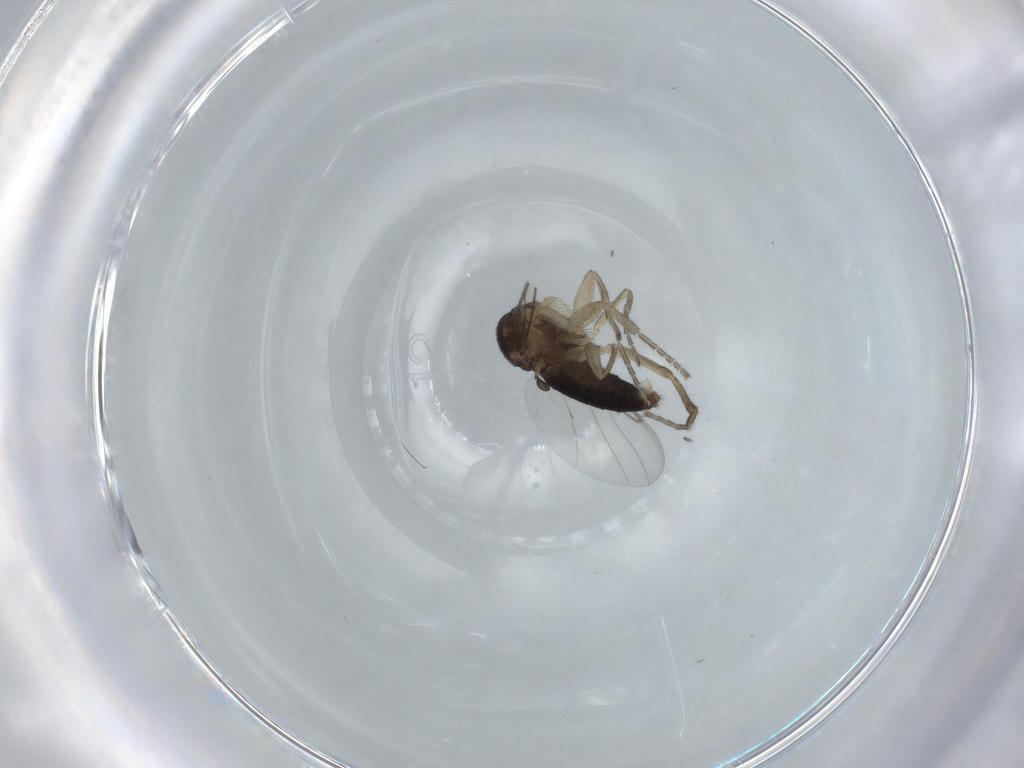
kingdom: Animalia
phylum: Arthropoda
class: Insecta
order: Diptera
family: Phoridae
